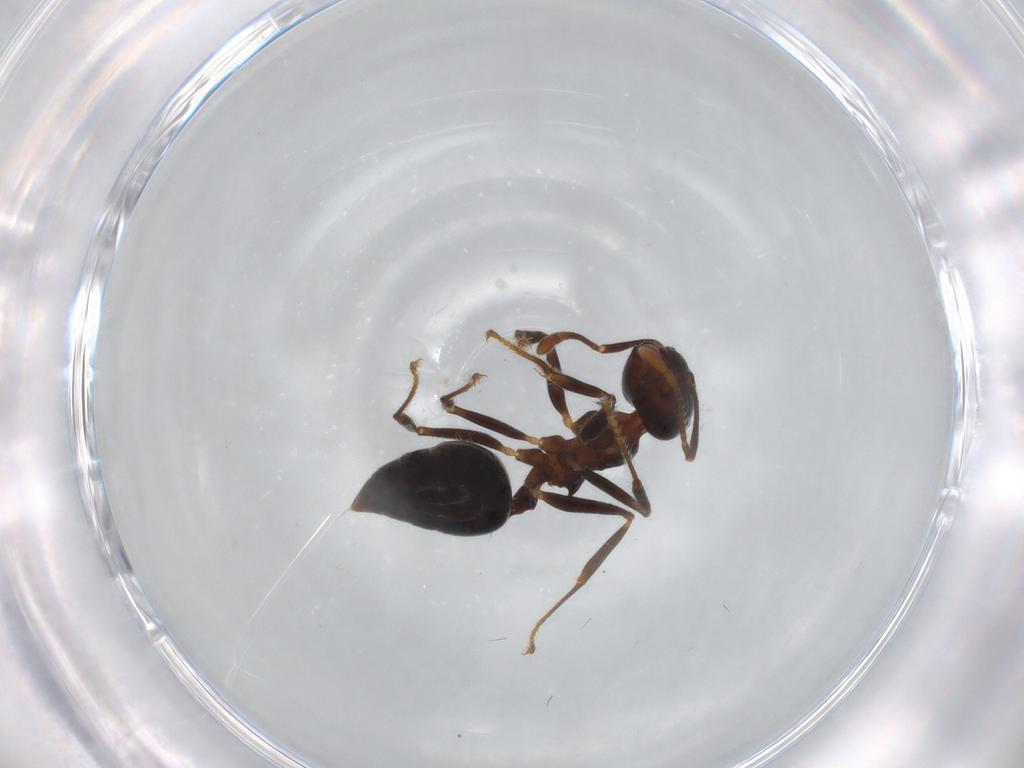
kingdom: Animalia
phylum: Arthropoda
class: Insecta
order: Hymenoptera
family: Formicidae
